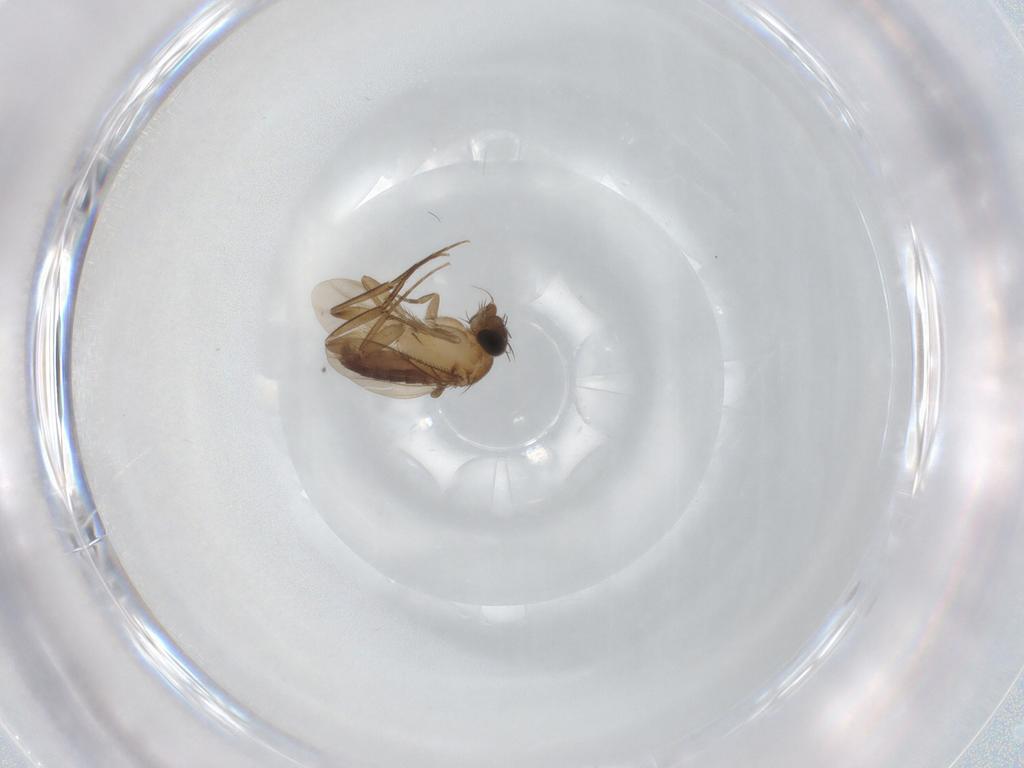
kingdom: Animalia
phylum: Arthropoda
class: Insecta
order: Diptera
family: Phoridae
